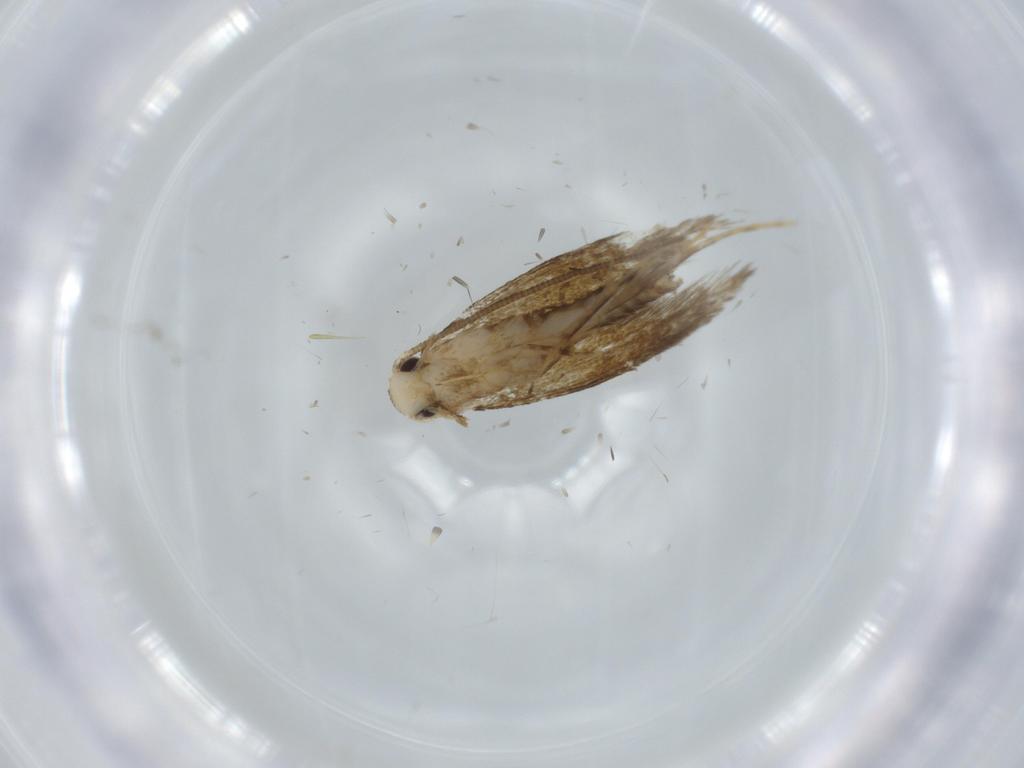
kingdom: Animalia
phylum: Arthropoda
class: Insecta
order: Lepidoptera
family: Tineidae
